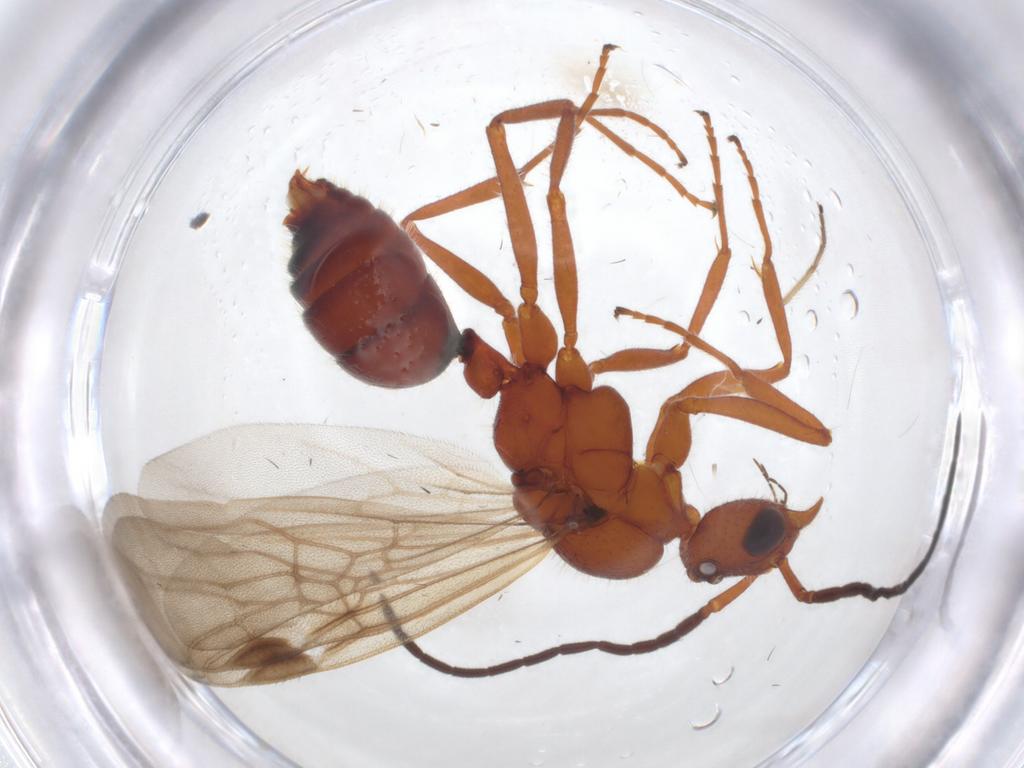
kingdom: Animalia
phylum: Arthropoda
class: Insecta
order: Hymenoptera
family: Formicidae
